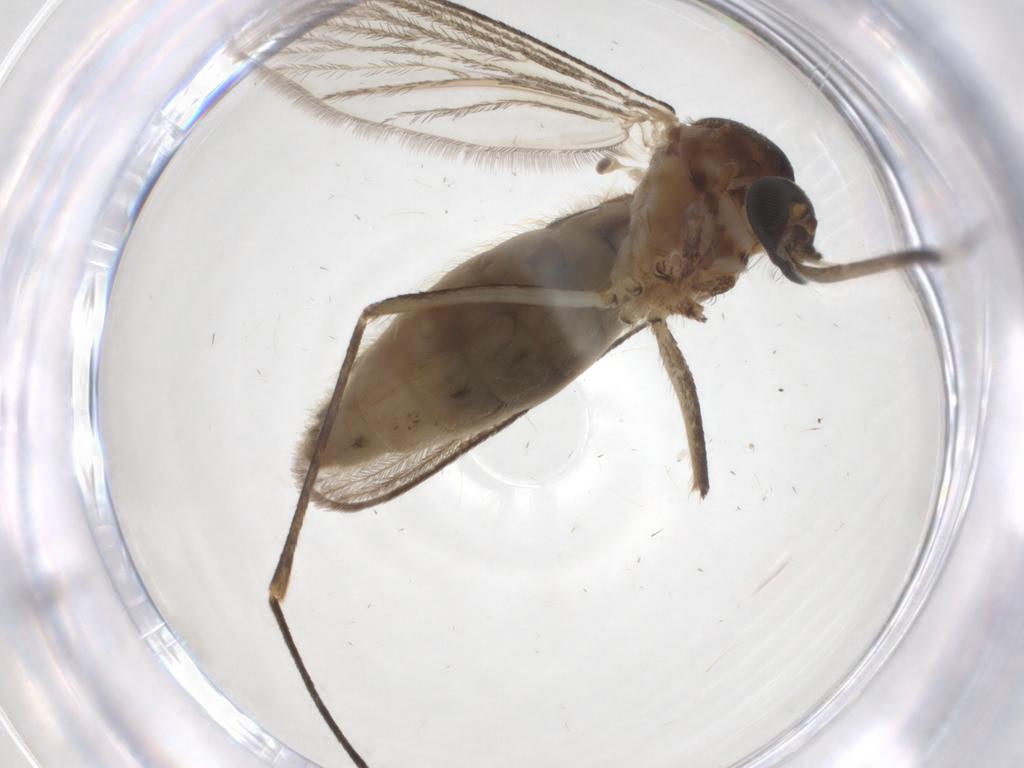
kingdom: Animalia
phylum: Arthropoda
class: Insecta
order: Diptera
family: Ceratopogonidae
